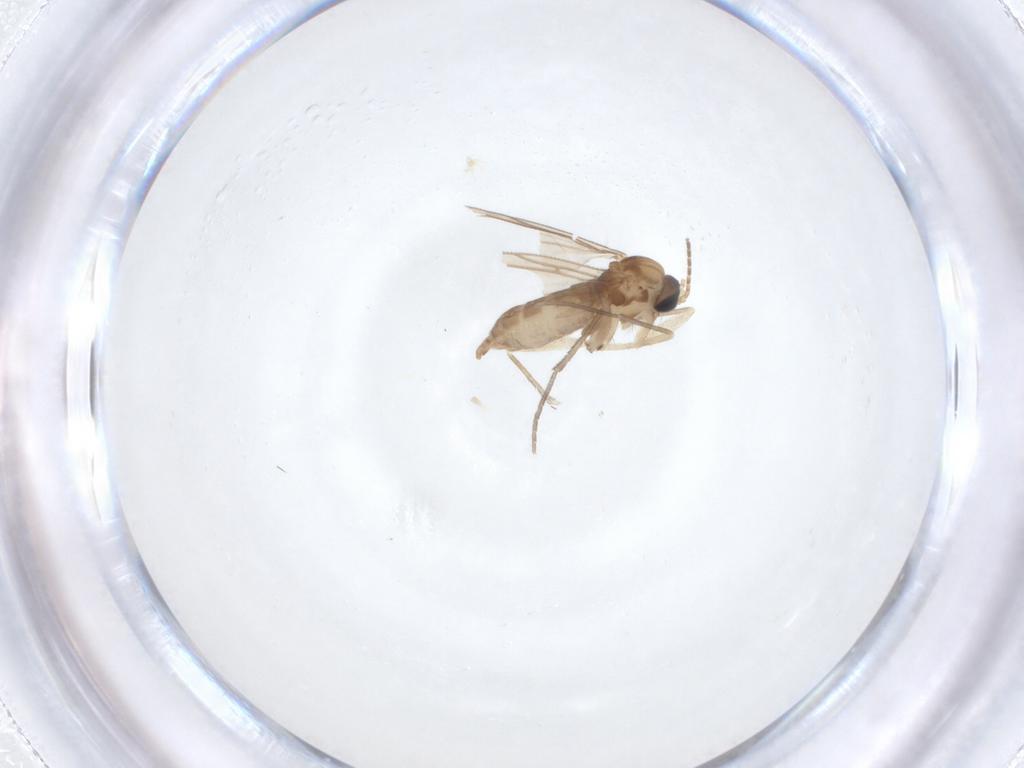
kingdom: Animalia
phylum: Arthropoda
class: Insecta
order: Diptera
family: Sciaridae
